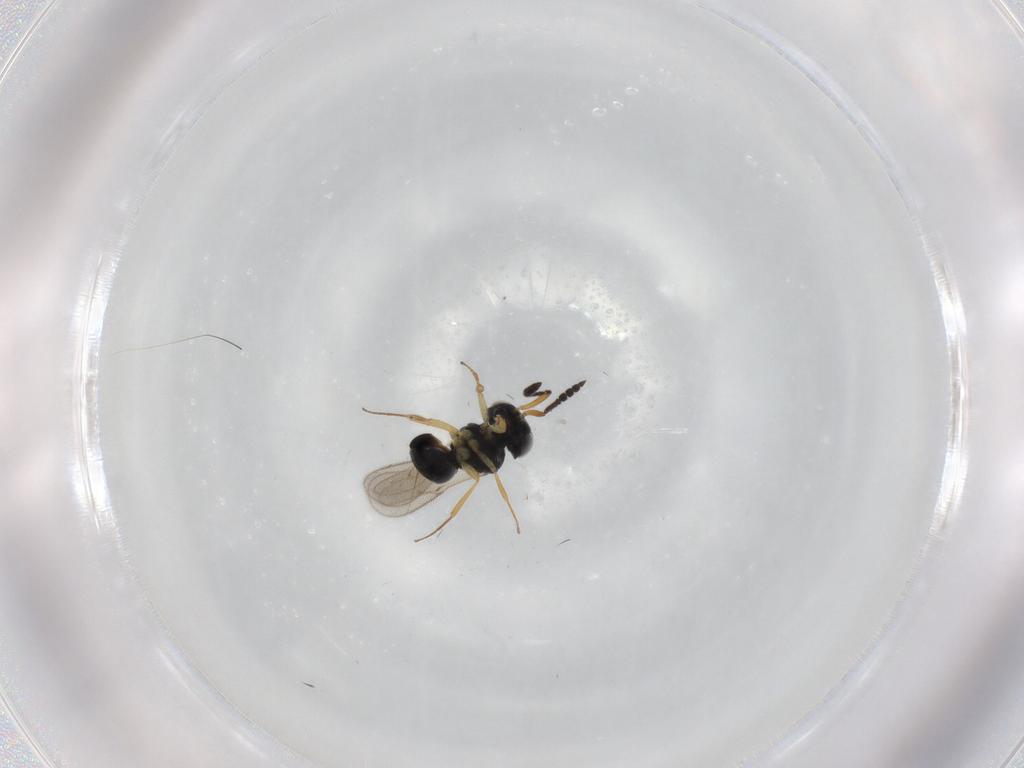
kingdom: Animalia
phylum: Arthropoda
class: Insecta
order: Hymenoptera
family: Scelionidae
